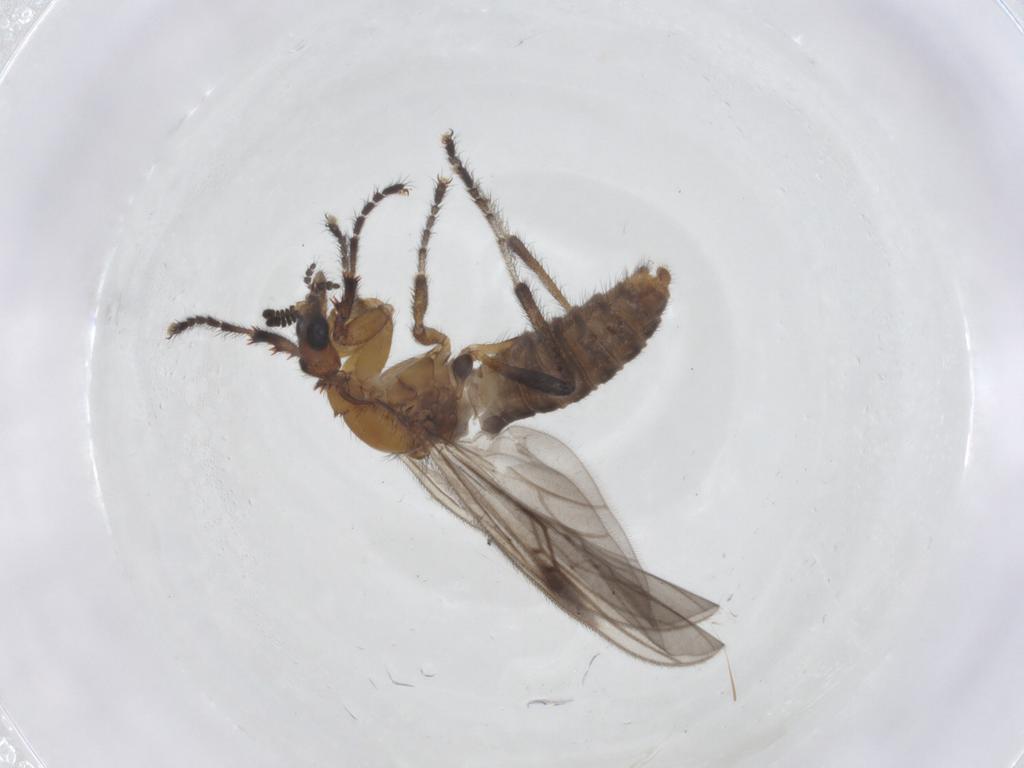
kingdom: Animalia
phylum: Arthropoda
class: Insecta
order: Diptera
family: Bibionidae
